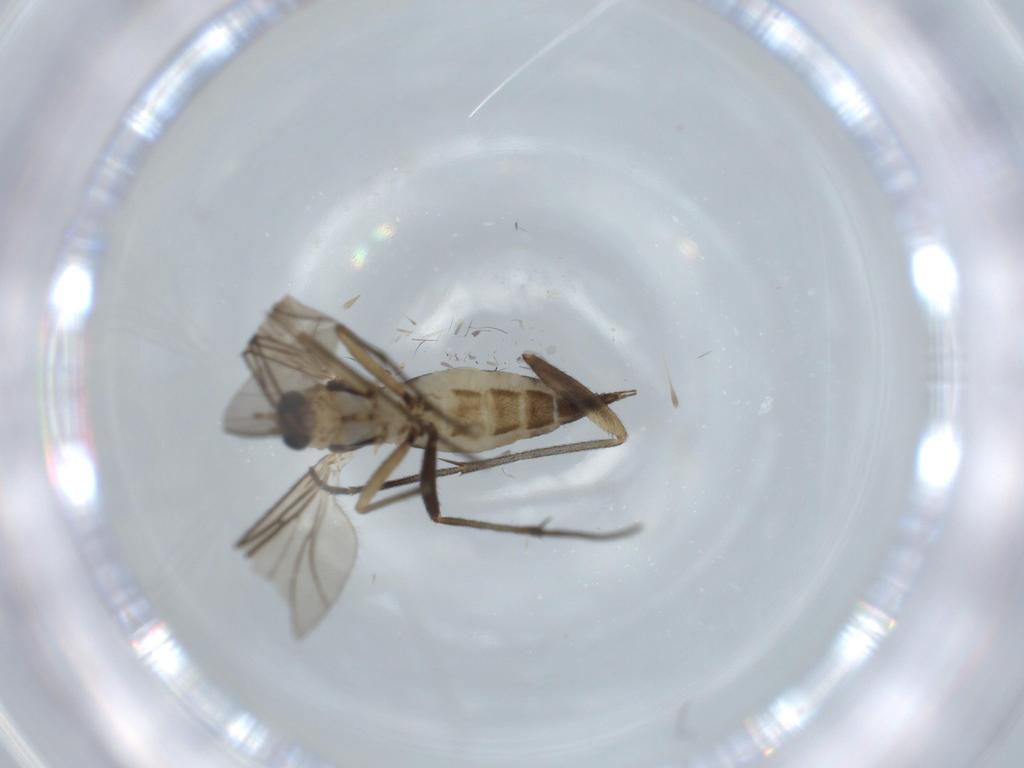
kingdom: Animalia
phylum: Arthropoda
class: Insecta
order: Diptera
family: Sciaridae
